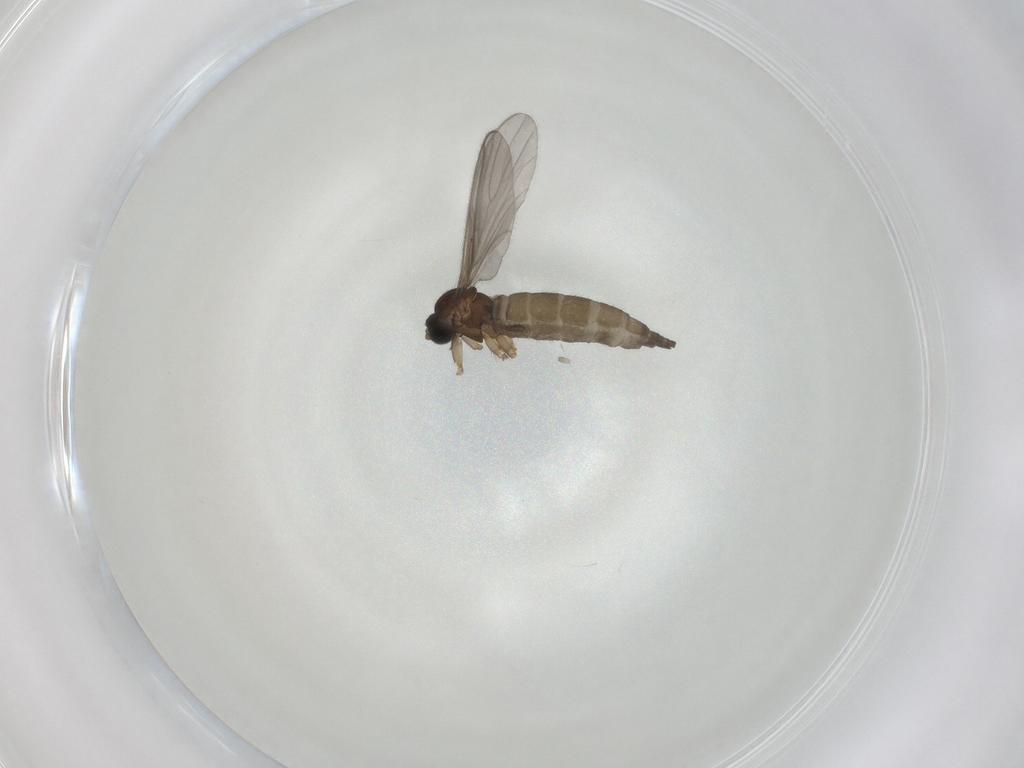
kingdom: Animalia
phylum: Arthropoda
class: Insecta
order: Diptera
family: Sciaridae
